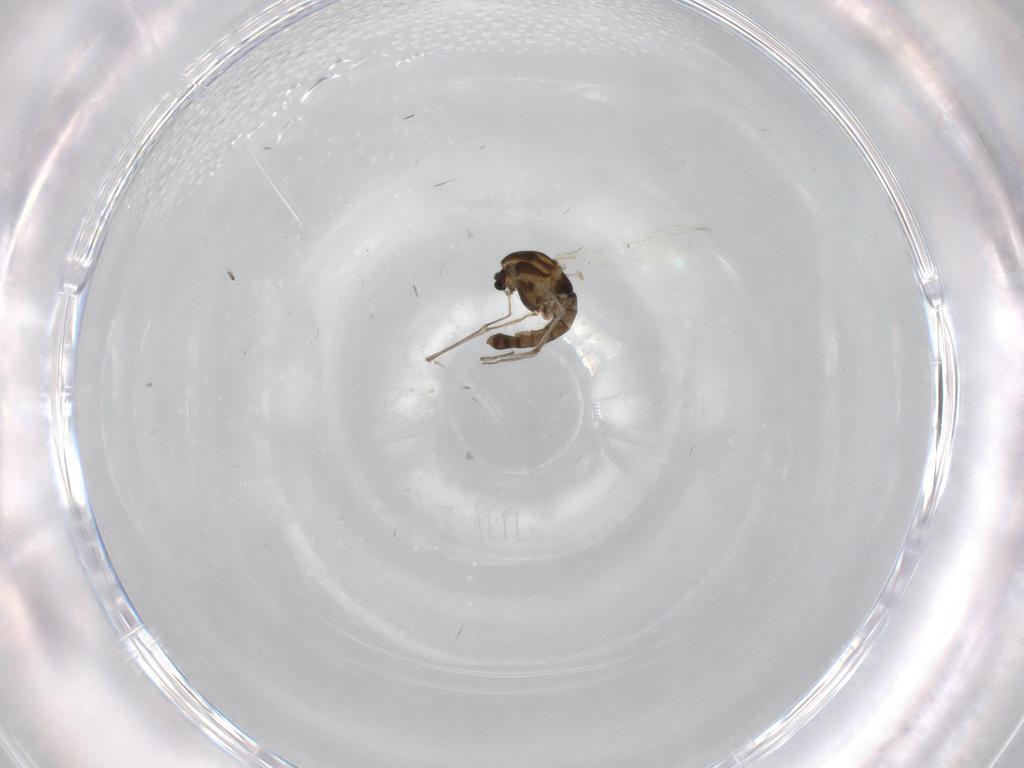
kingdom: Animalia
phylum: Arthropoda
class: Insecta
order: Diptera
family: Chironomidae
